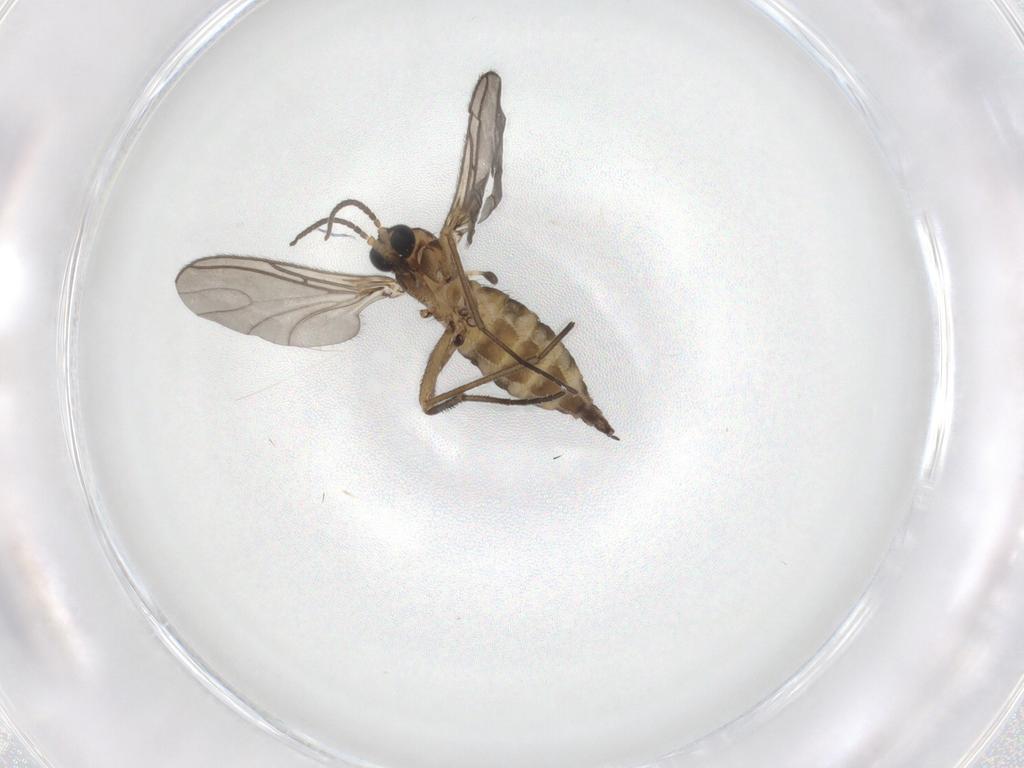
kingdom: Animalia
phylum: Arthropoda
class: Insecta
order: Diptera
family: Sciaridae
